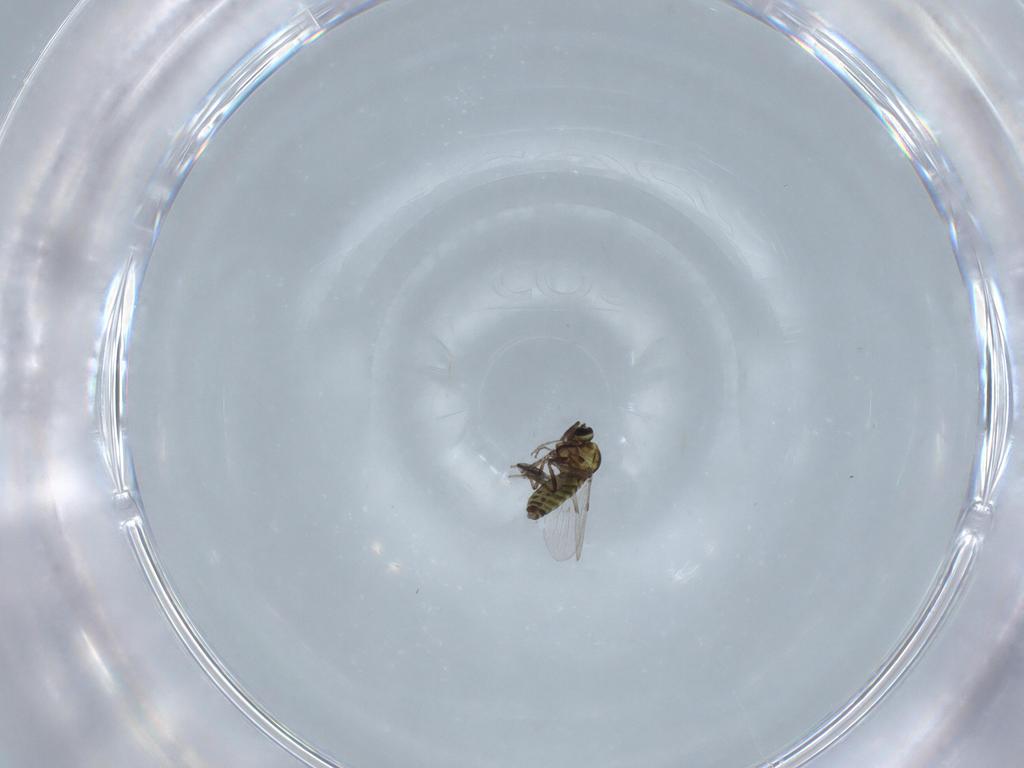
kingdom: Animalia
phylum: Arthropoda
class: Insecta
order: Diptera
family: Ceratopogonidae
